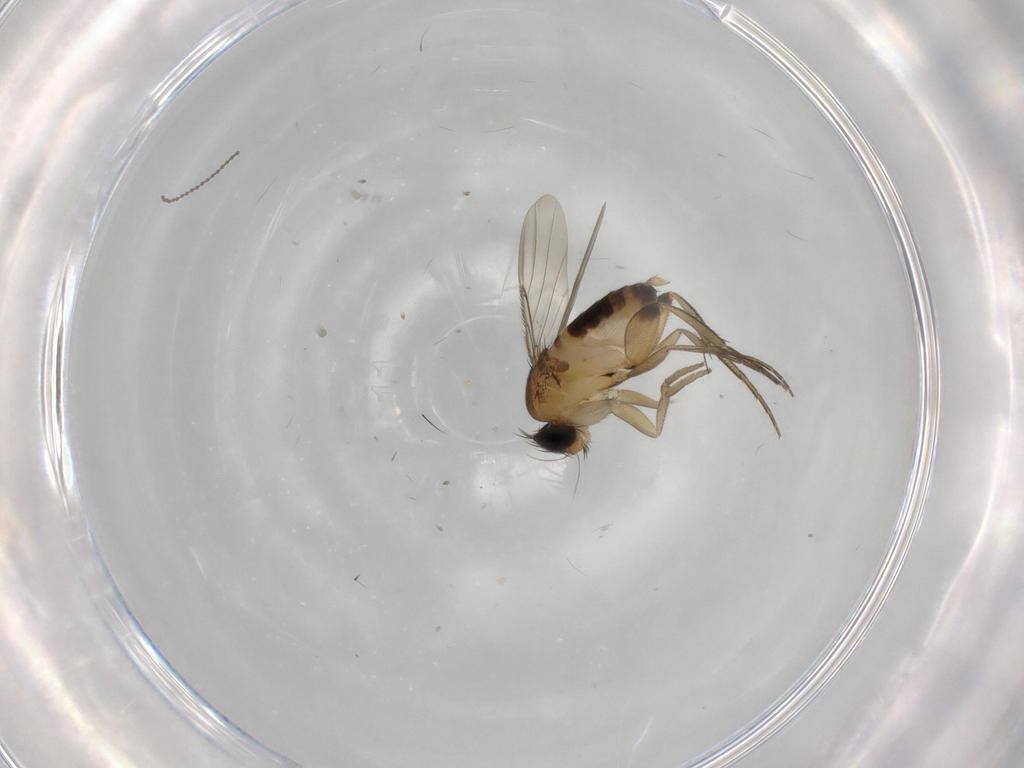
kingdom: Animalia
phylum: Arthropoda
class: Insecta
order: Diptera
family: Phoridae
